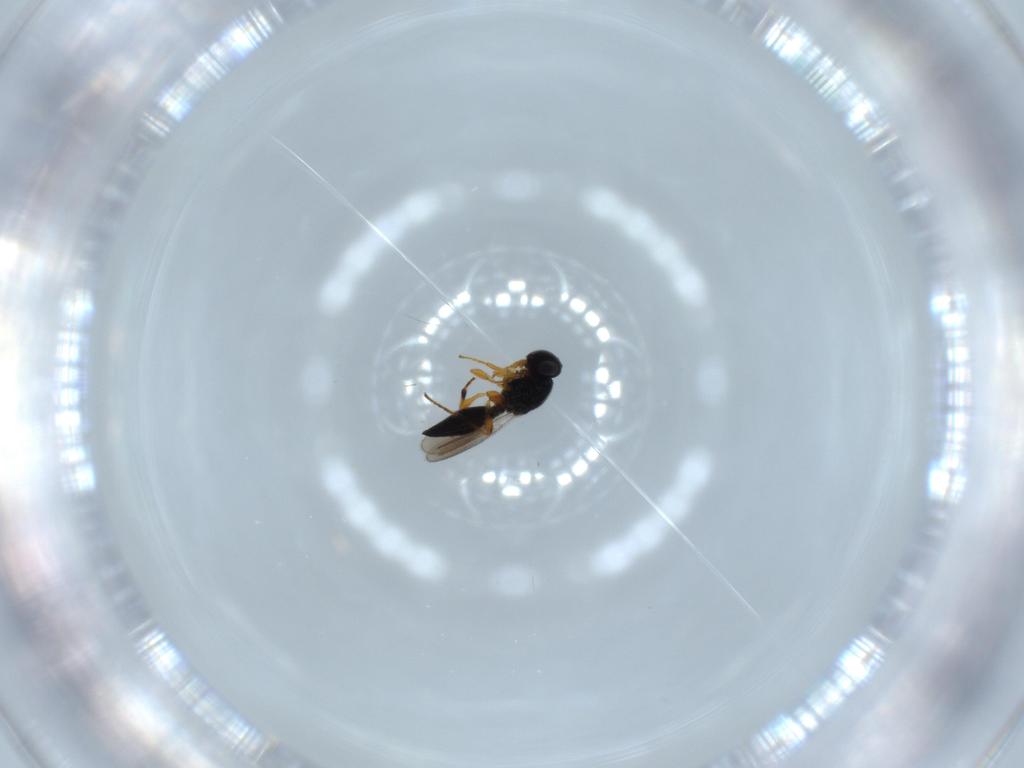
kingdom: Animalia
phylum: Arthropoda
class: Insecta
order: Hymenoptera
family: Platygastridae
